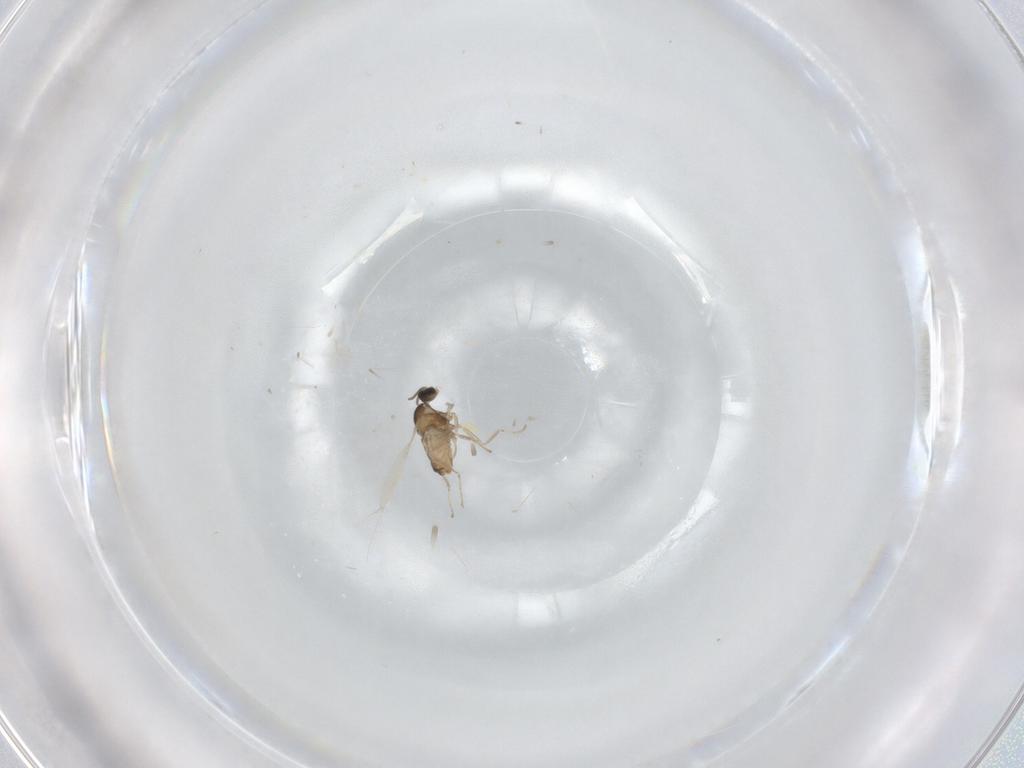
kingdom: Animalia
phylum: Arthropoda
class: Insecta
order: Diptera
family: Cecidomyiidae
